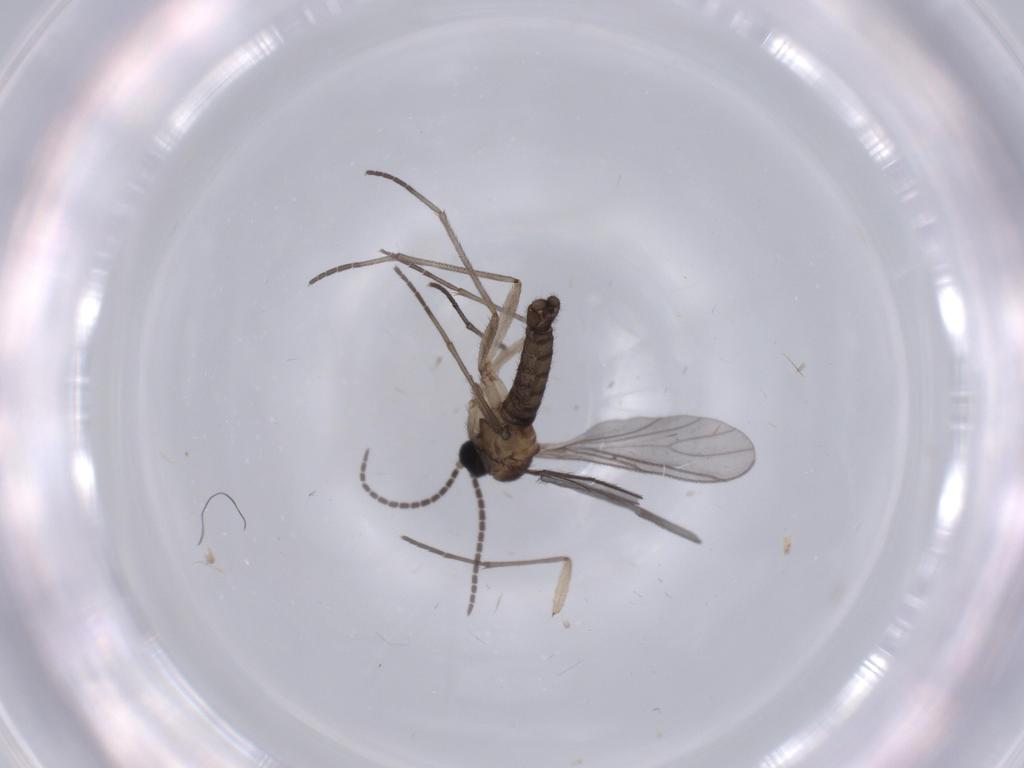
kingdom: Animalia
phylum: Arthropoda
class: Insecta
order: Diptera
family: Sciaridae
